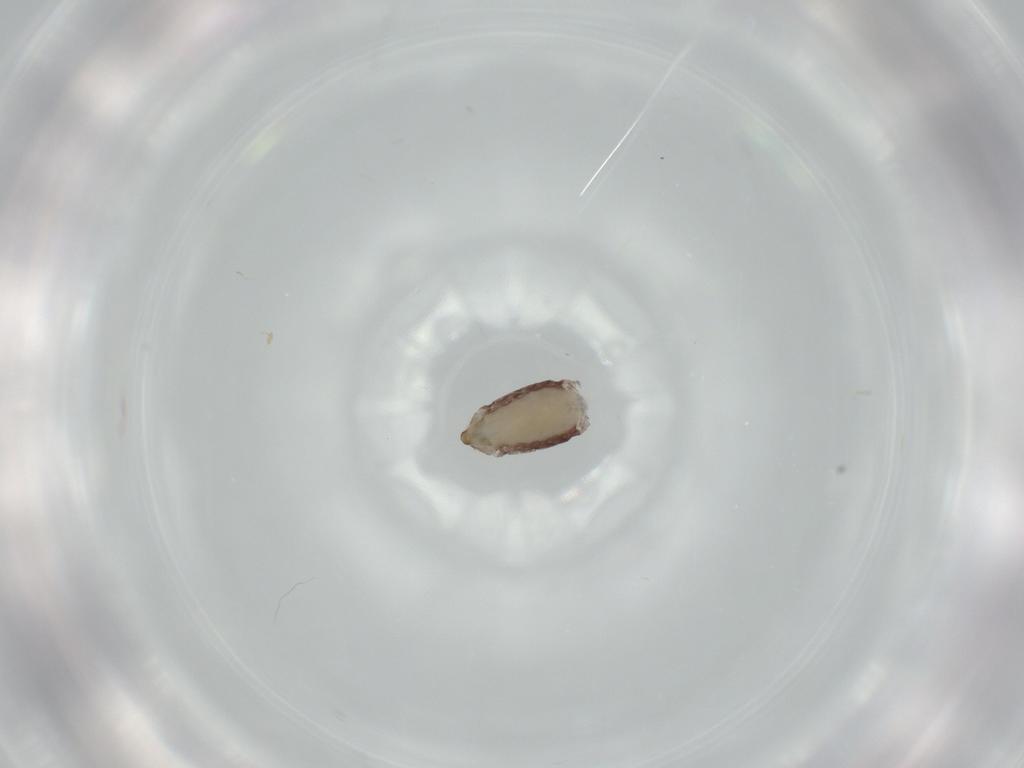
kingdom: Animalia
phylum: Arthropoda
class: Insecta
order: Psocodea
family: Lepidopsocidae
